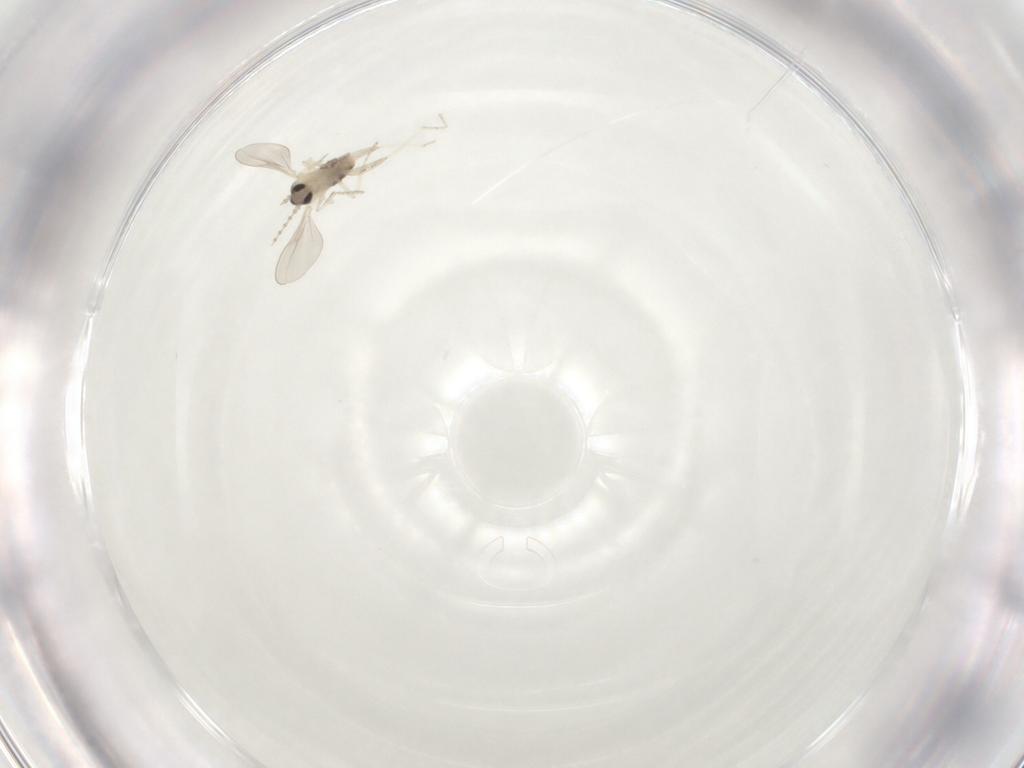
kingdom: Animalia
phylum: Arthropoda
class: Insecta
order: Diptera
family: Cecidomyiidae
